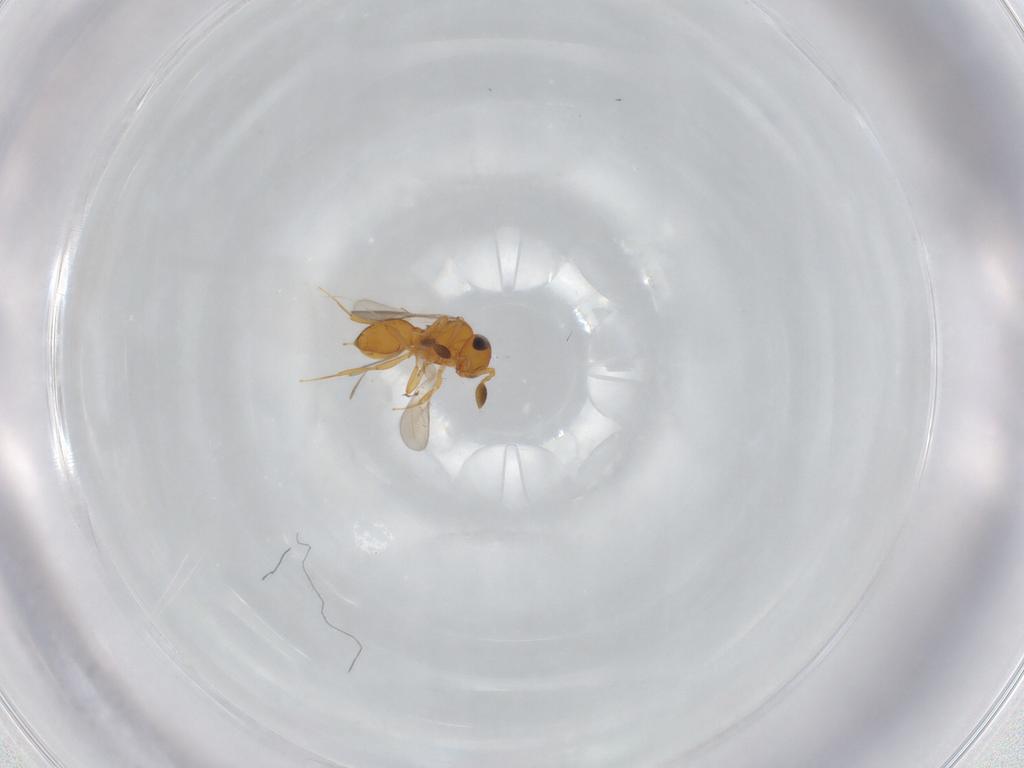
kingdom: Animalia
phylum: Arthropoda
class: Insecta
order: Hymenoptera
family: Scelionidae
